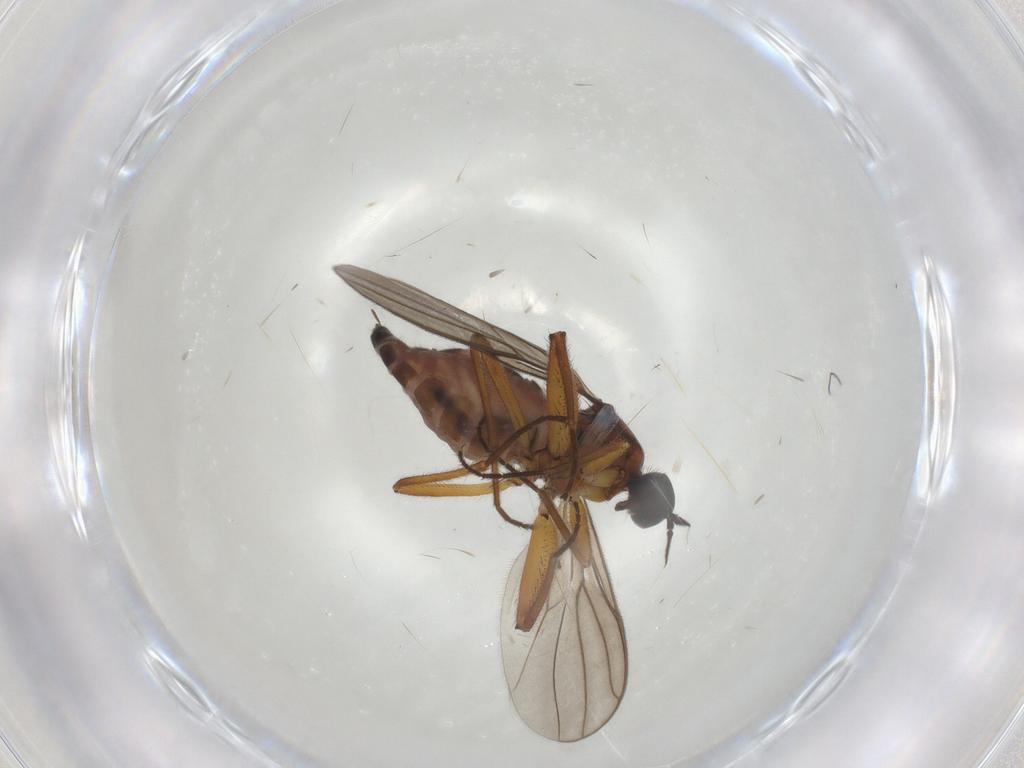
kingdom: Animalia
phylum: Arthropoda
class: Insecta
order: Diptera
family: Hybotidae
